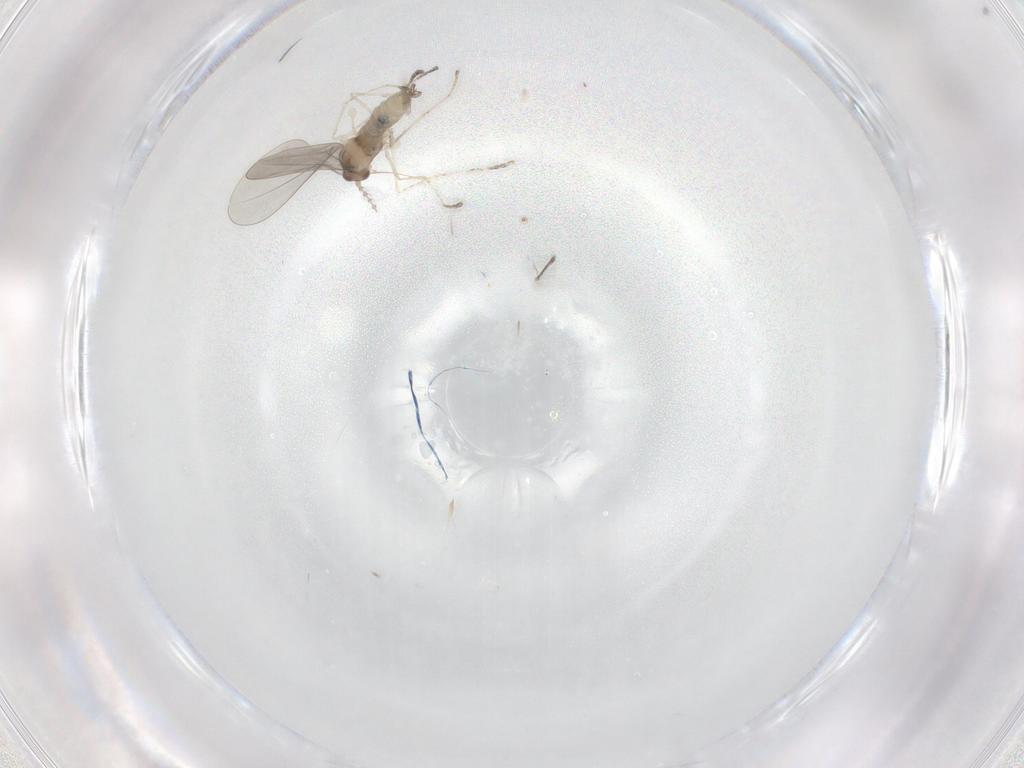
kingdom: Animalia
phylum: Arthropoda
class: Insecta
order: Diptera
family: Cecidomyiidae
